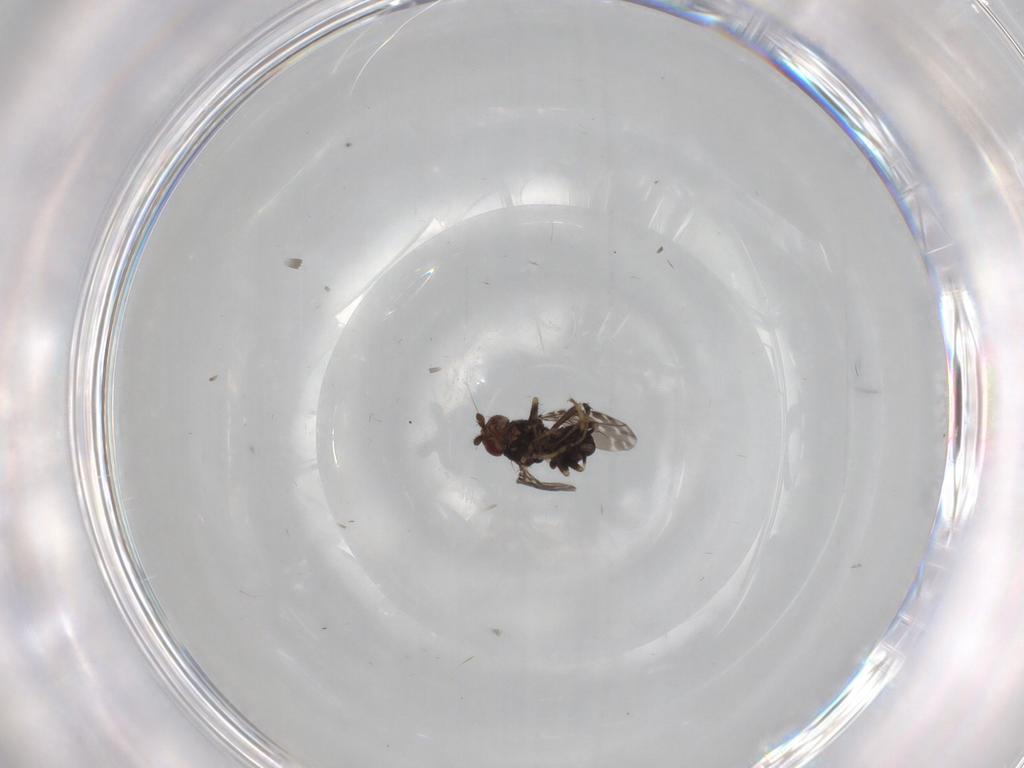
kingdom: Animalia
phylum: Arthropoda
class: Insecta
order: Diptera
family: Sphaeroceridae
